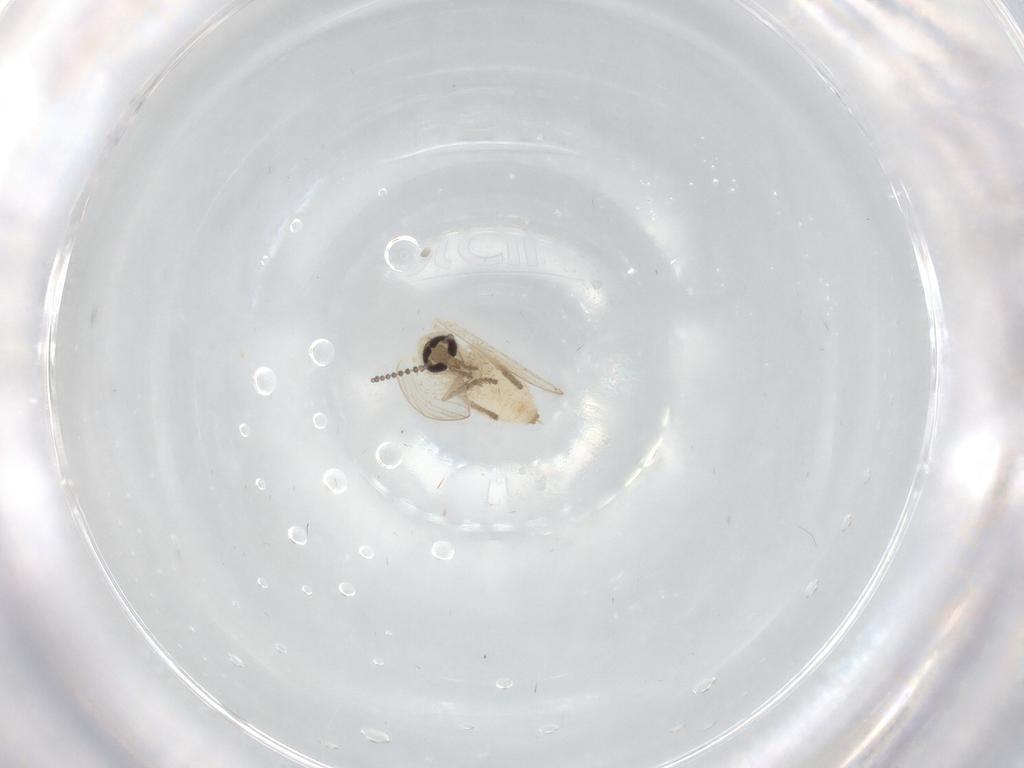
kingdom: Animalia
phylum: Arthropoda
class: Insecta
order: Diptera
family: Psychodidae
